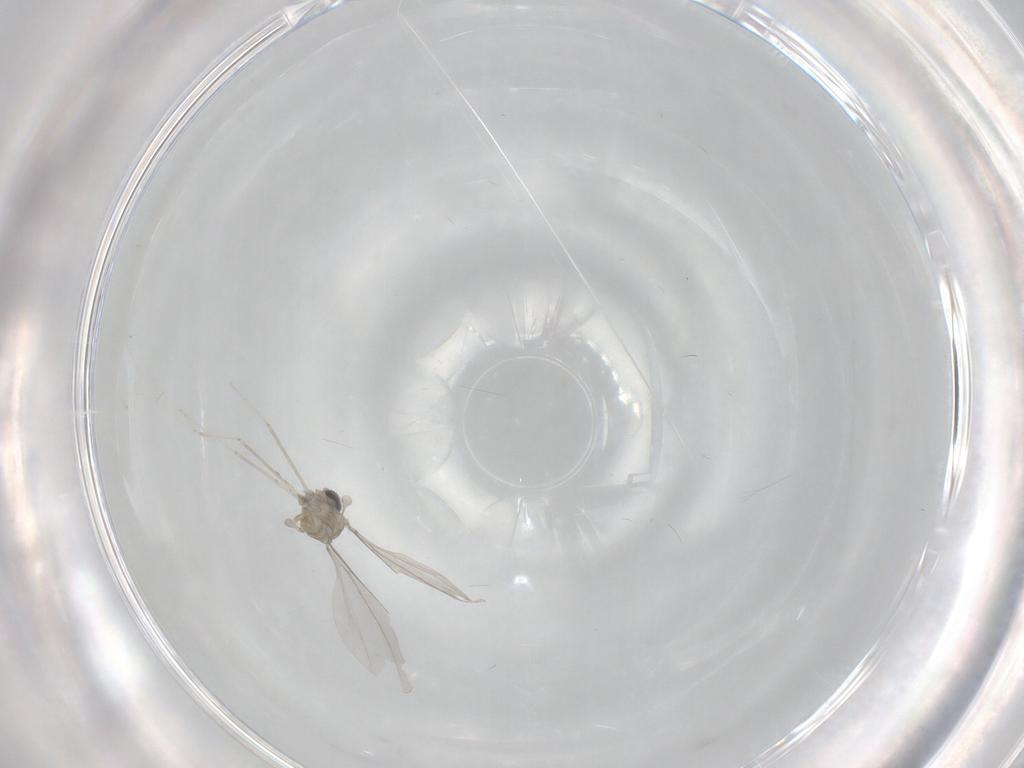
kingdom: Animalia
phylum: Arthropoda
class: Insecta
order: Diptera
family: Cecidomyiidae
